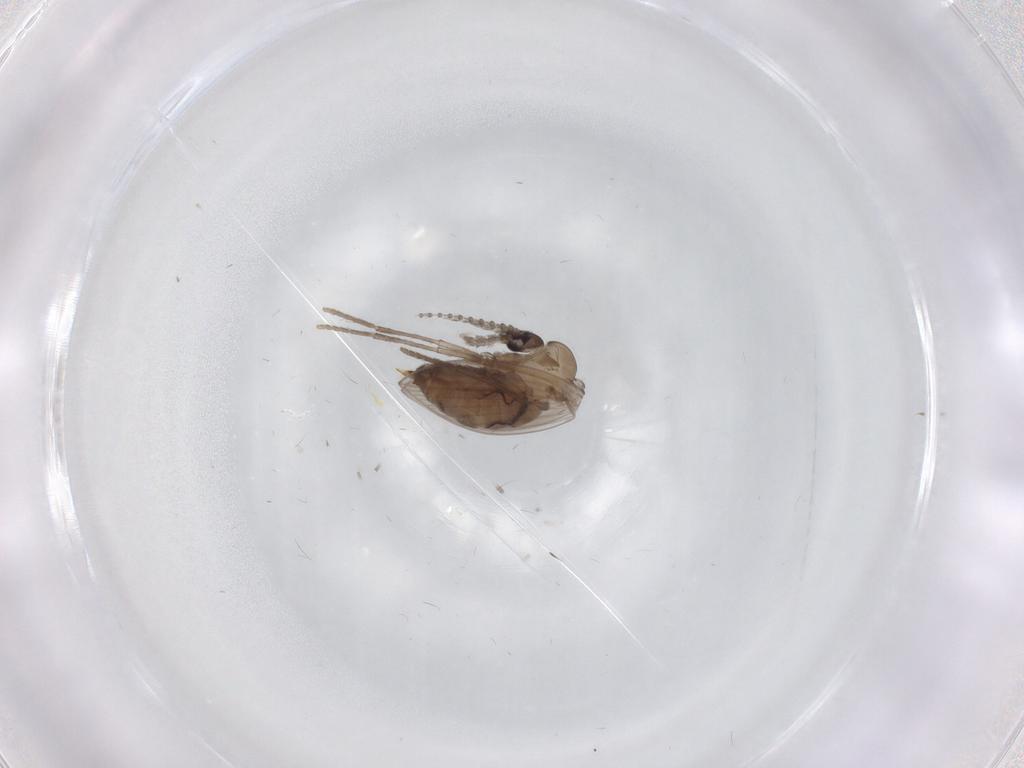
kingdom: Animalia
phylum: Arthropoda
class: Insecta
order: Diptera
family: Psychodidae
